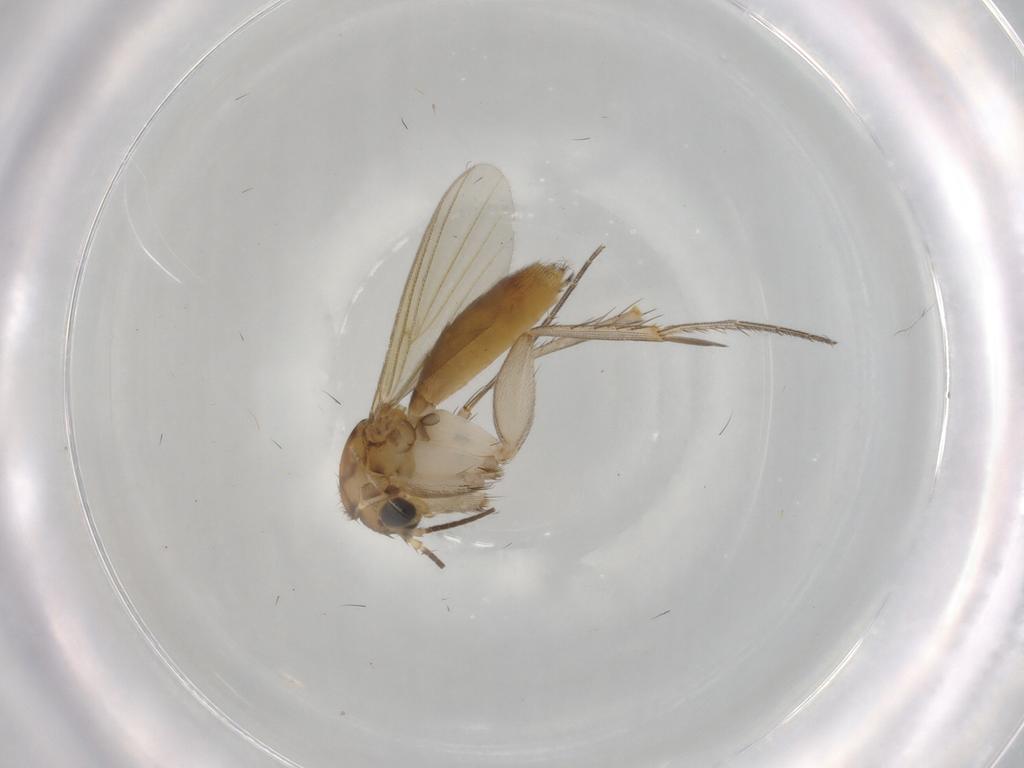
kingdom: Animalia
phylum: Arthropoda
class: Insecta
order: Diptera
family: Mycetophilidae
